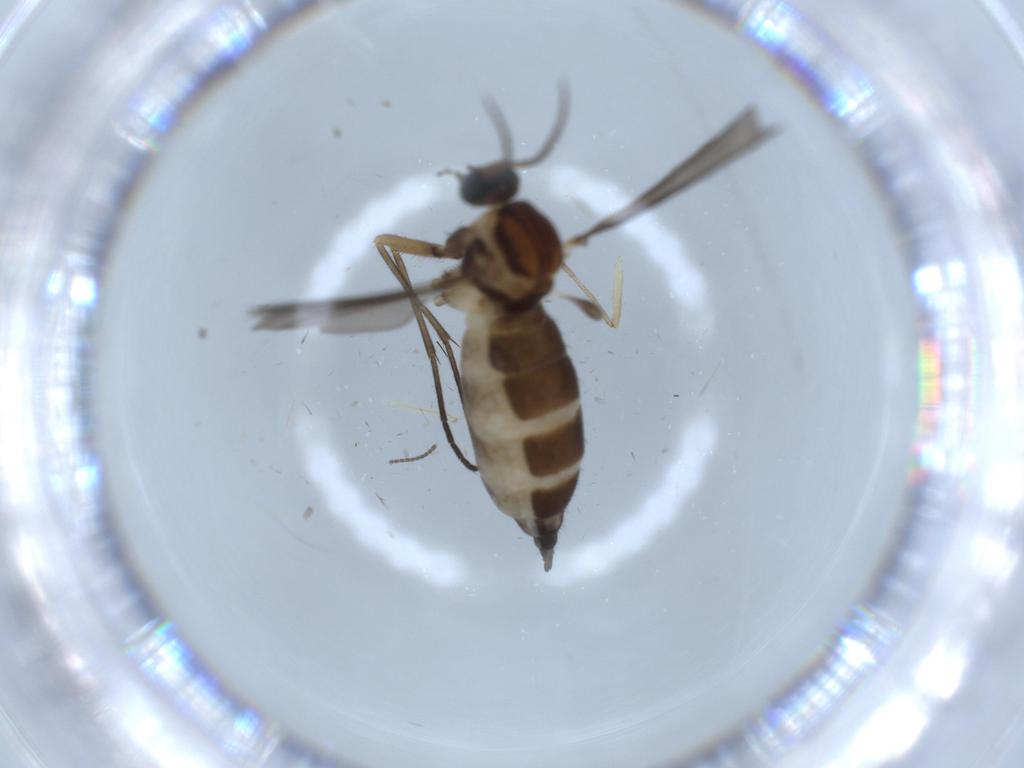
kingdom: Animalia
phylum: Arthropoda
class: Insecta
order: Diptera
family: Sciaridae
